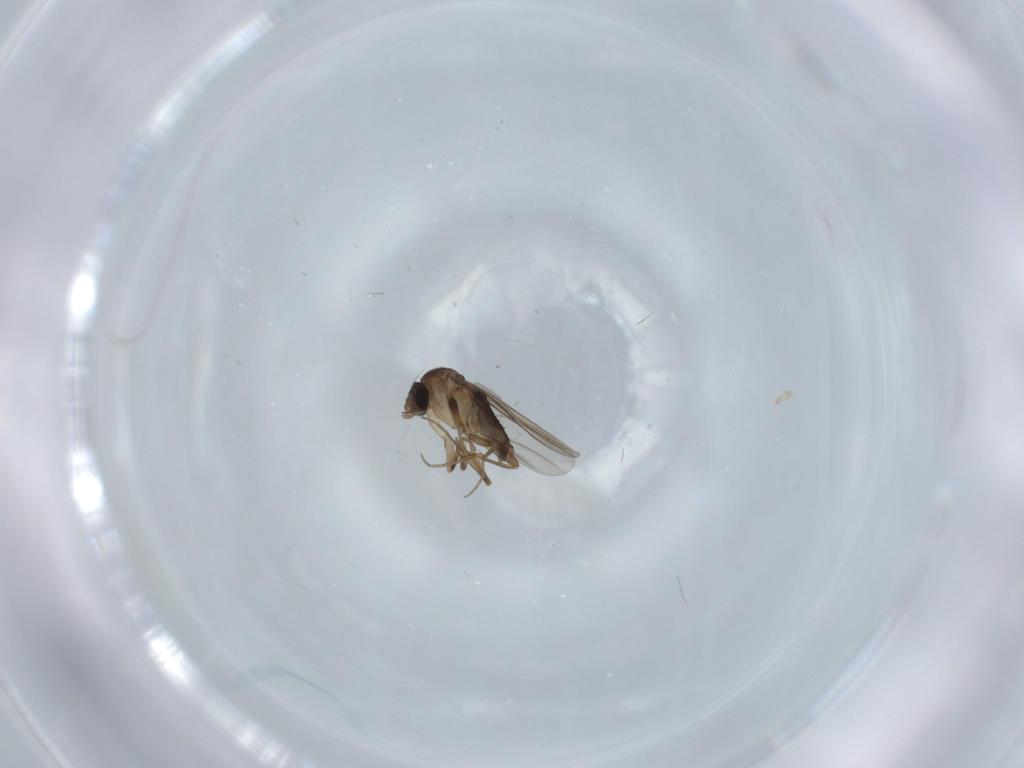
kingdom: Animalia
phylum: Arthropoda
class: Insecta
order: Diptera
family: Phoridae
